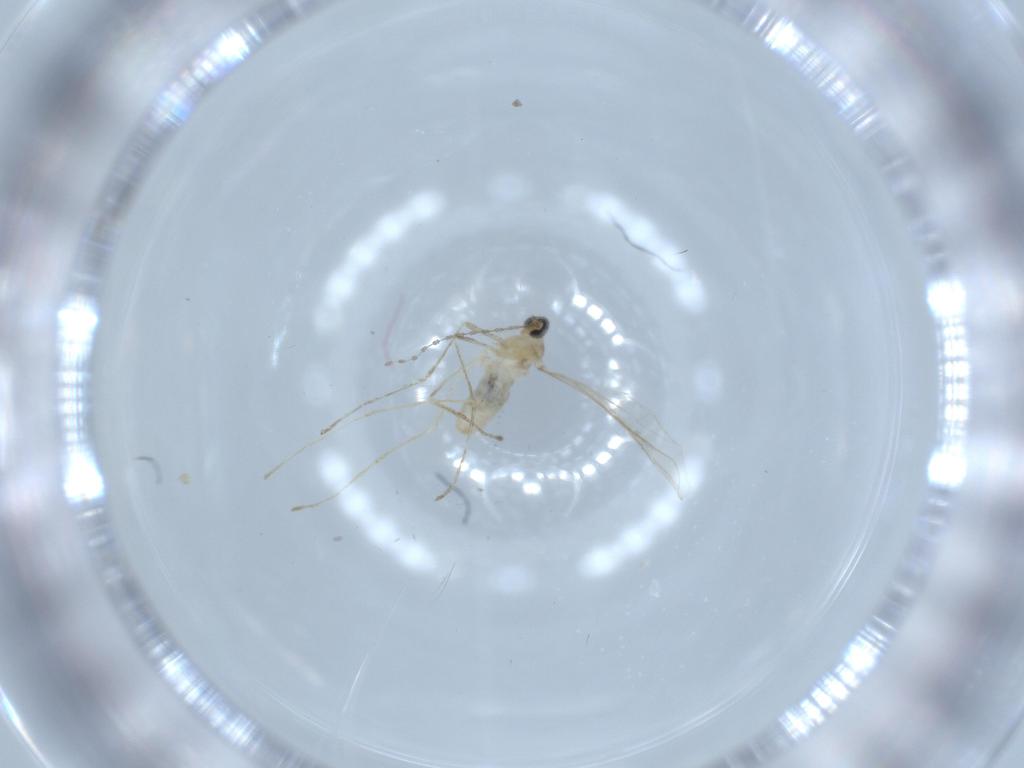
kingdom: Animalia
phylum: Arthropoda
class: Insecta
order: Diptera
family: Cecidomyiidae
